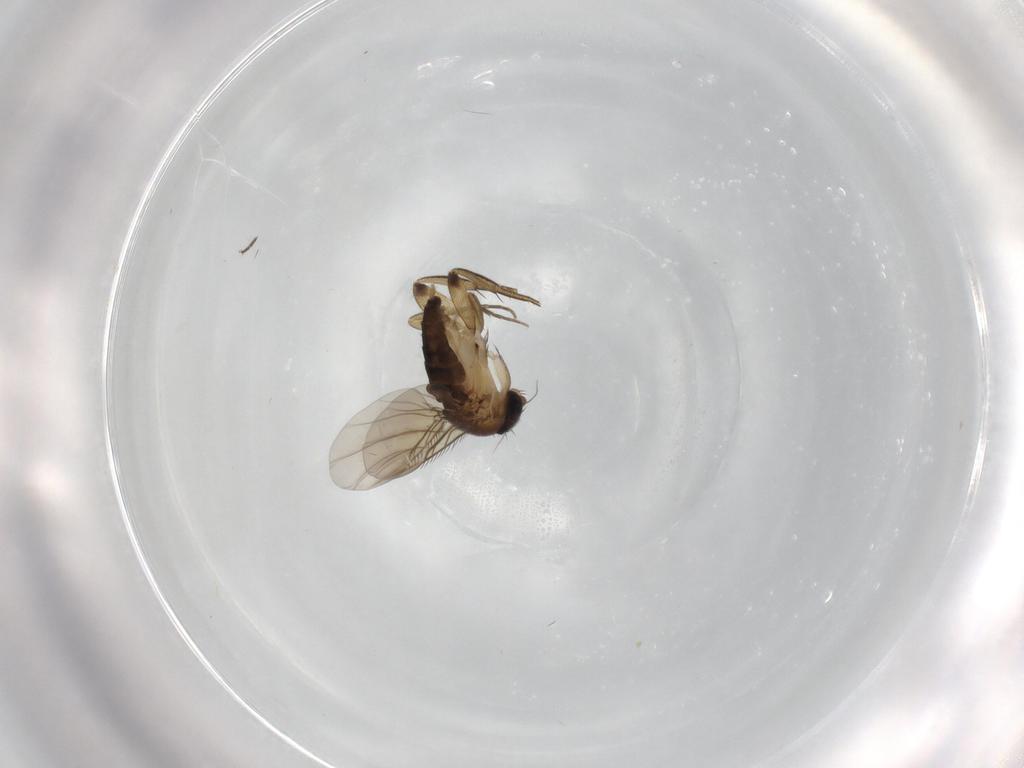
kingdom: Animalia
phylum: Arthropoda
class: Insecta
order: Diptera
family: Phoridae
